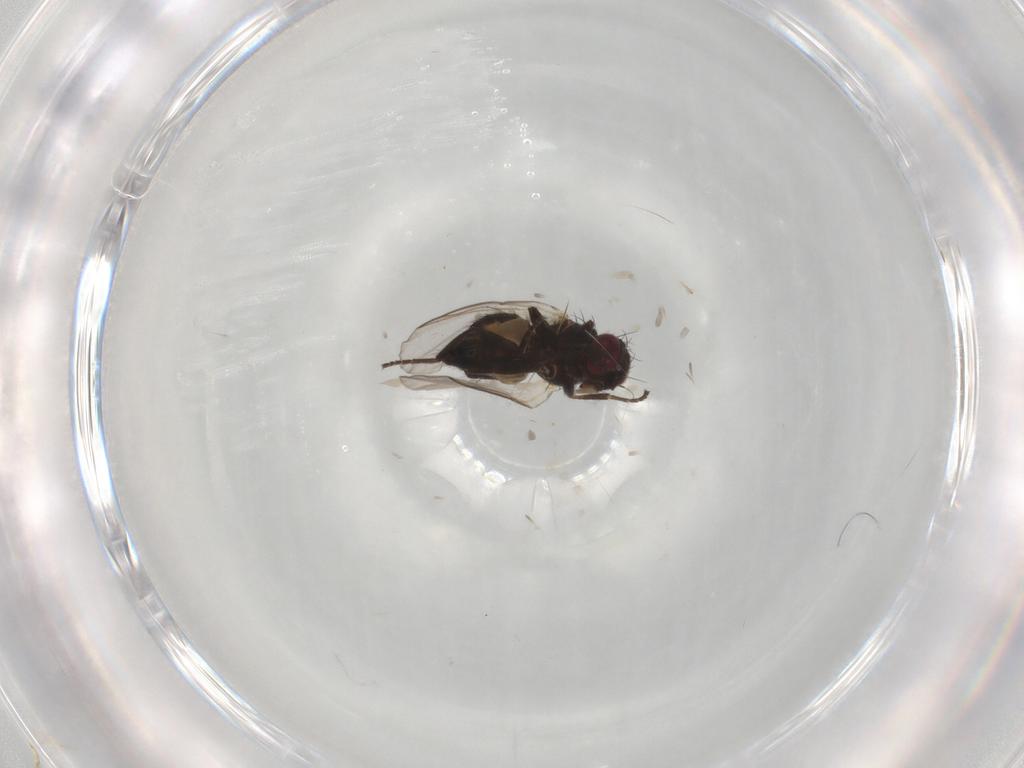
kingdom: Animalia
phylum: Arthropoda
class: Insecta
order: Diptera
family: Agromyzidae
